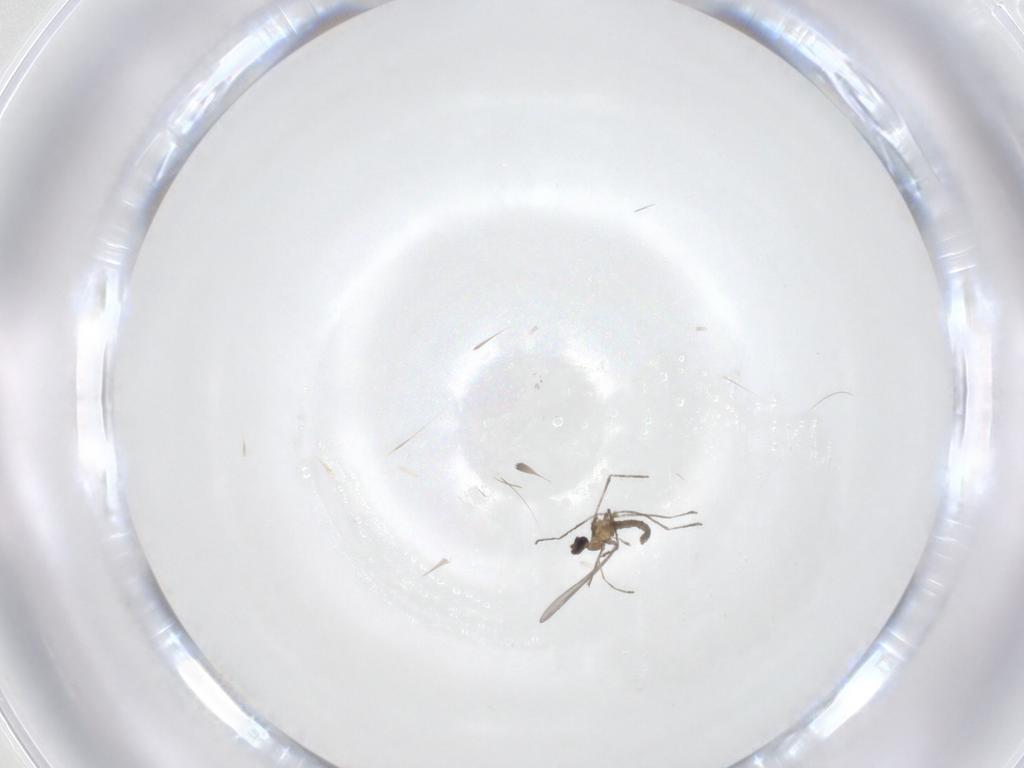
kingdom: Animalia
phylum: Arthropoda
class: Insecta
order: Diptera
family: Cecidomyiidae
